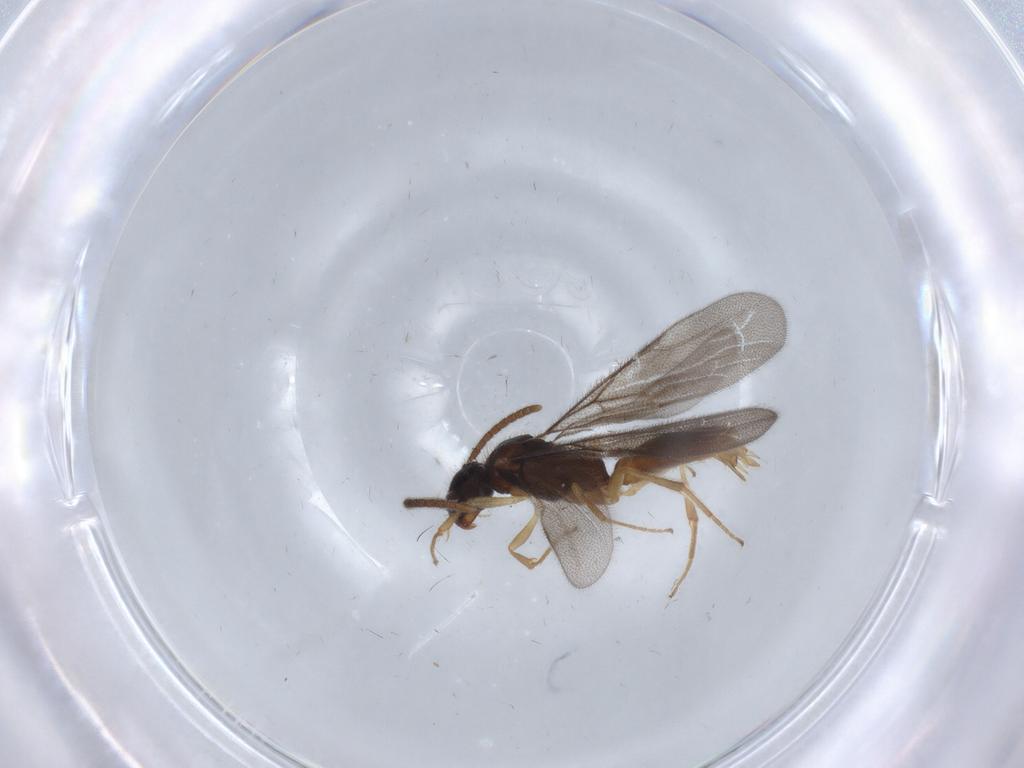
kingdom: Animalia
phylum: Arthropoda
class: Insecta
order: Hymenoptera
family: Bethylidae
